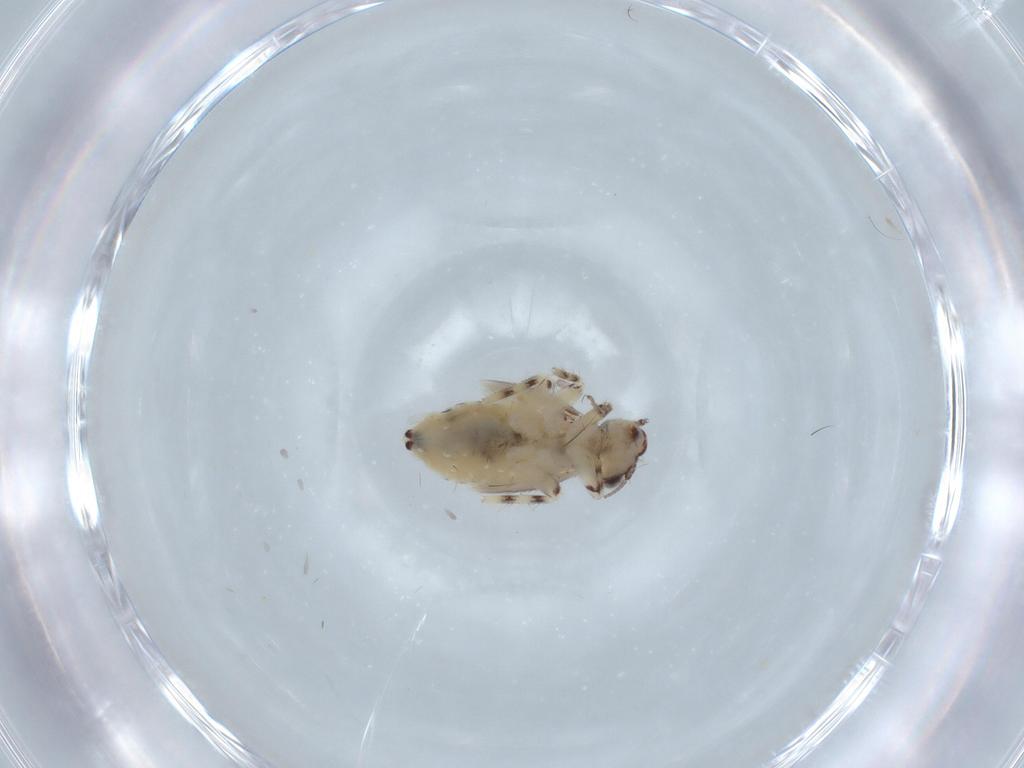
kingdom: Animalia
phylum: Arthropoda
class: Insecta
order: Psocodea
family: Lepidopsocidae
